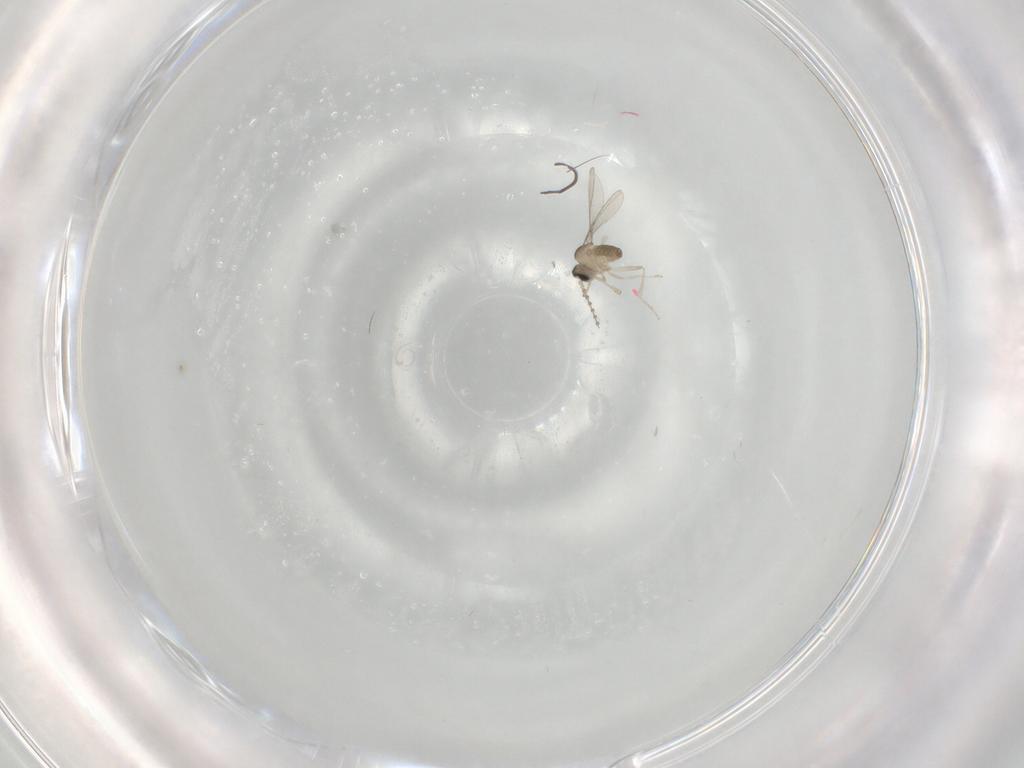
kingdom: Animalia
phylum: Arthropoda
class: Insecta
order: Diptera
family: Cecidomyiidae
